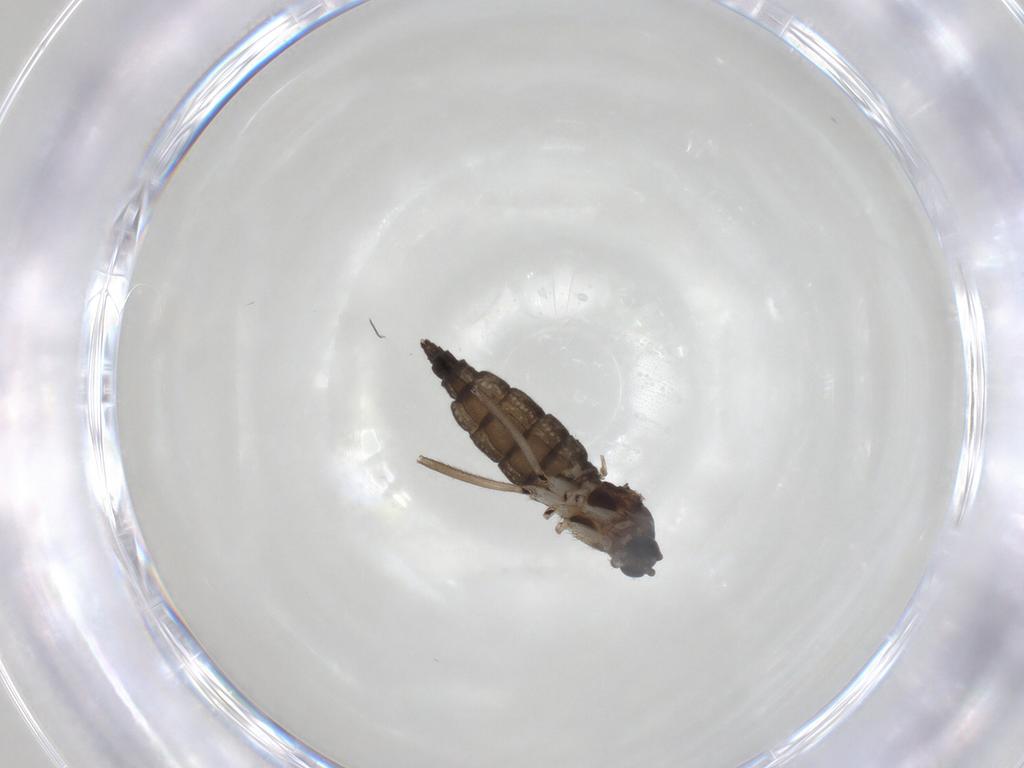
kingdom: Animalia
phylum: Arthropoda
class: Insecta
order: Diptera
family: Sciaridae
